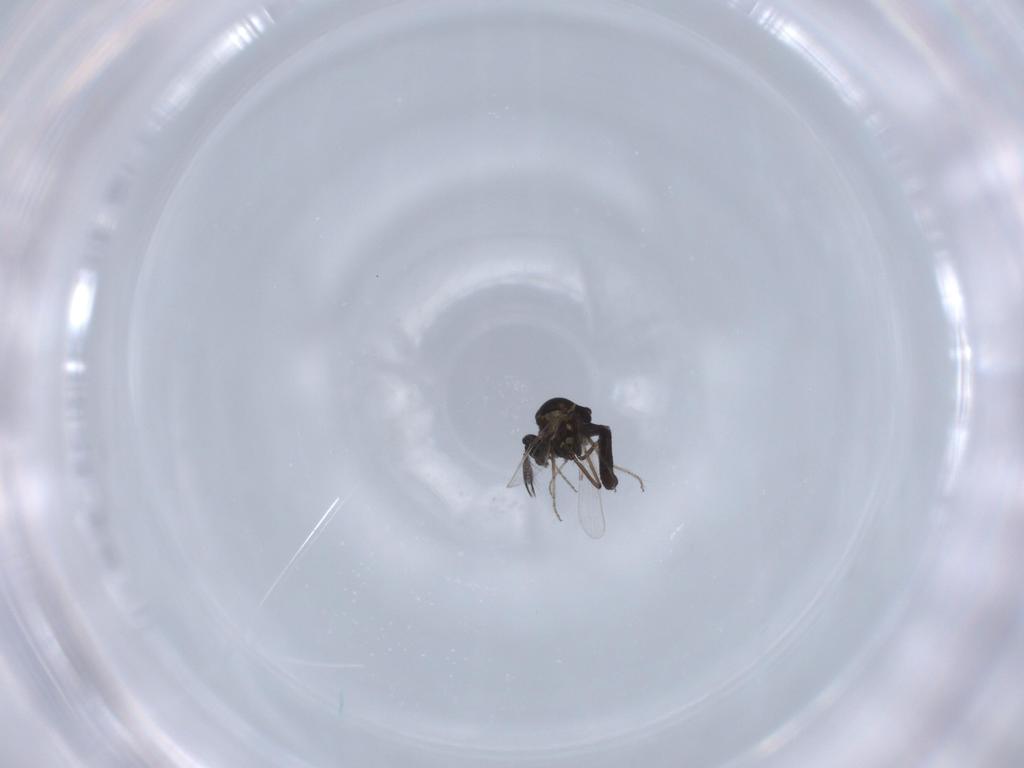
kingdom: Animalia
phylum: Arthropoda
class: Insecta
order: Diptera
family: Ceratopogonidae
